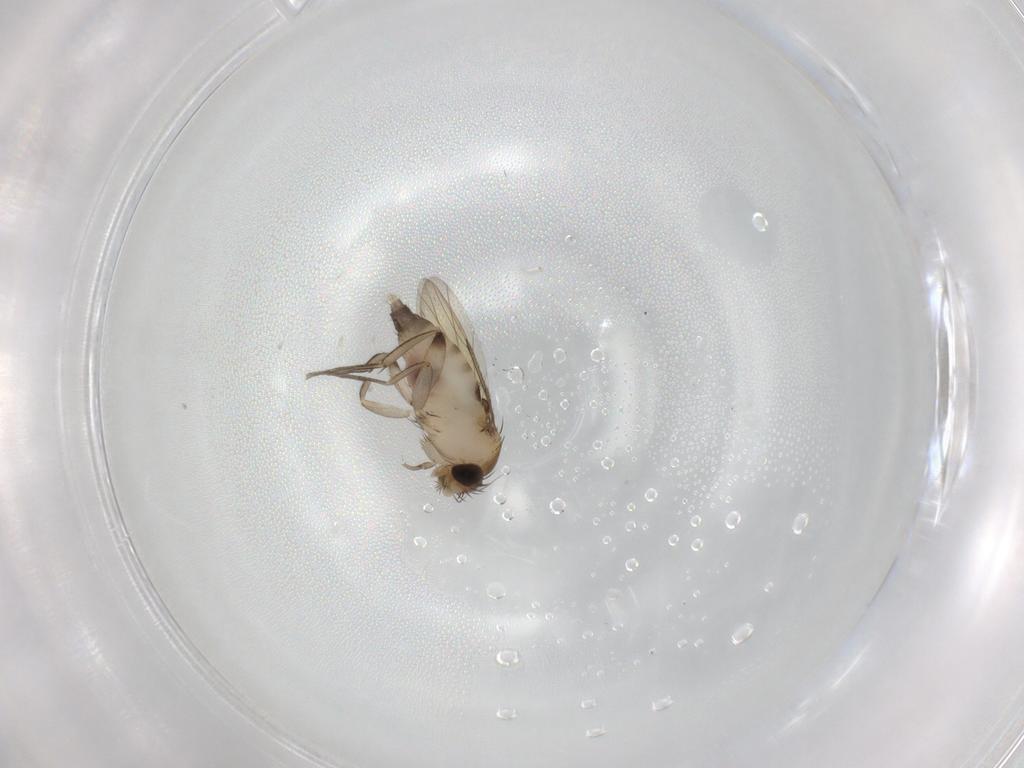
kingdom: Animalia
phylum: Arthropoda
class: Insecta
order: Diptera
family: Phoridae
